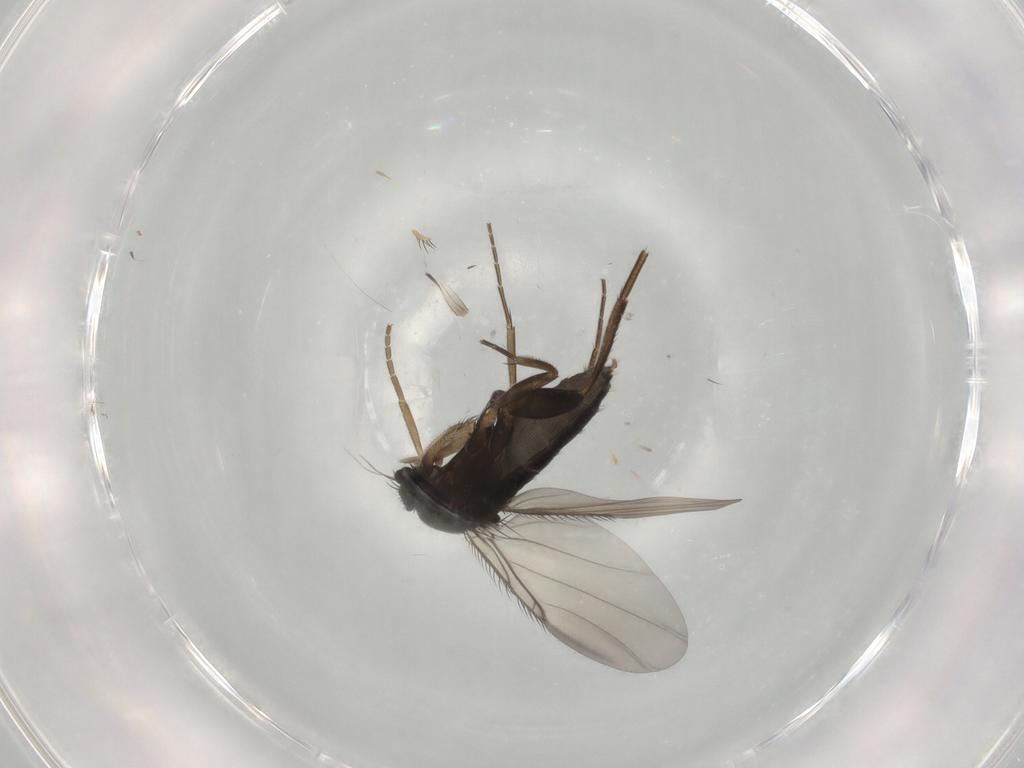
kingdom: Animalia
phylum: Arthropoda
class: Insecta
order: Diptera
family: Phoridae
